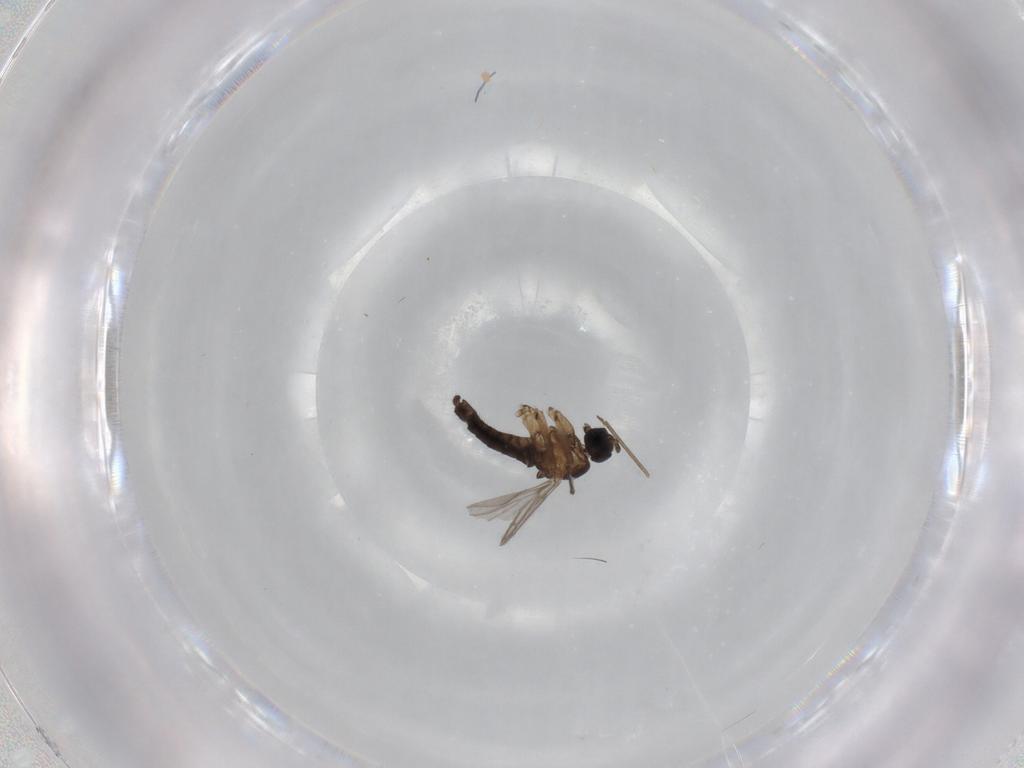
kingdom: Animalia
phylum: Arthropoda
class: Insecta
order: Diptera
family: Sciaridae
